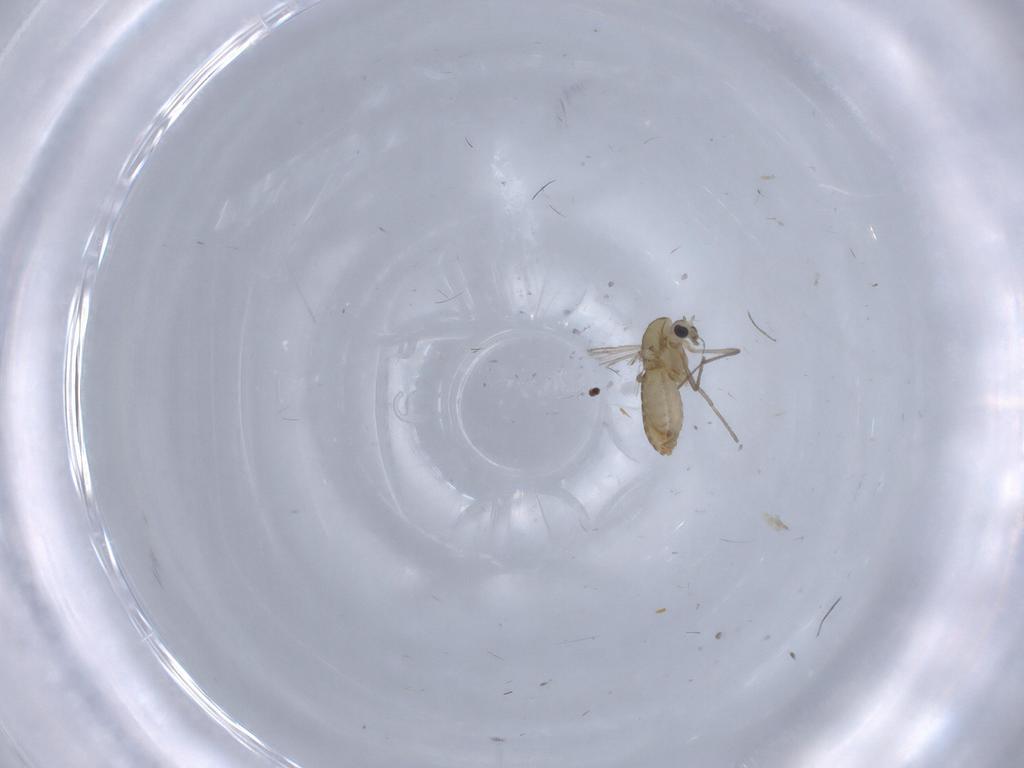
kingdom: Animalia
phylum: Arthropoda
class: Insecta
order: Diptera
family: Chironomidae
